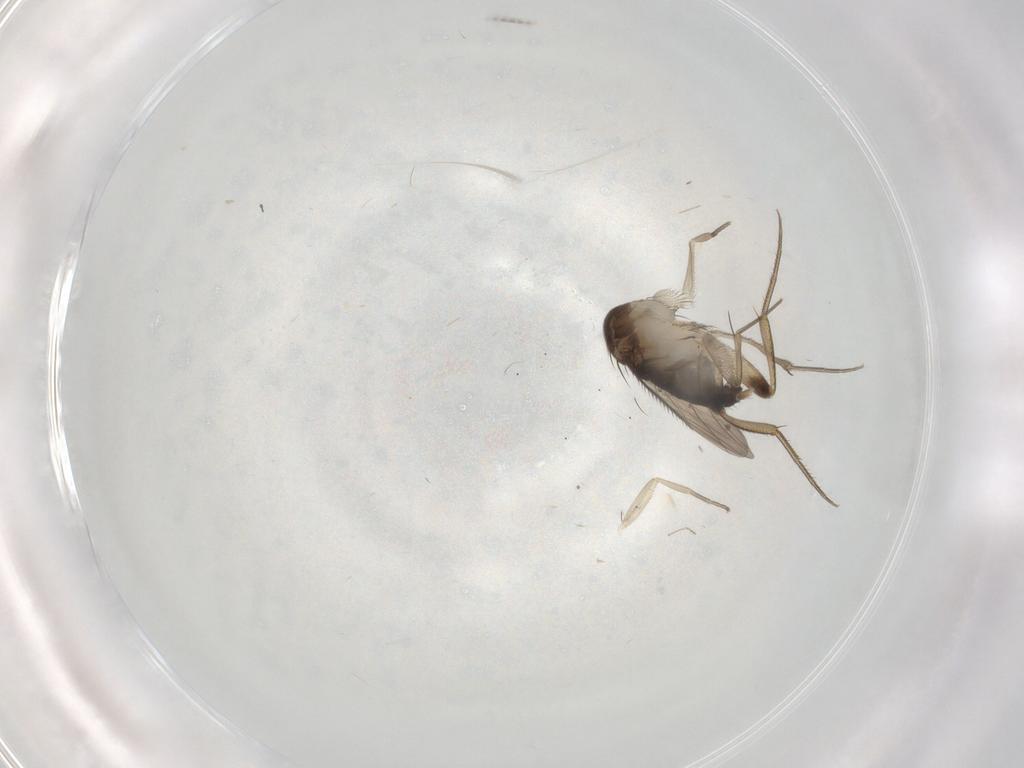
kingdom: Animalia
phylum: Arthropoda
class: Insecta
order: Diptera
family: Phoridae
